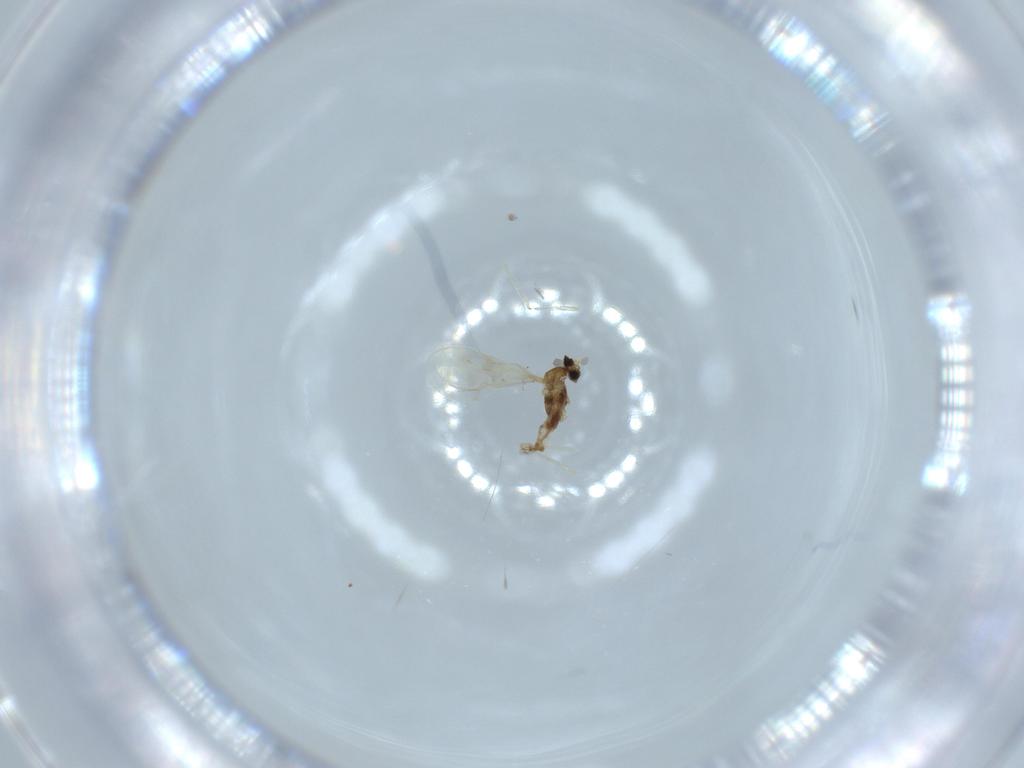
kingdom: Animalia
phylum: Arthropoda
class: Insecta
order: Diptera
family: Cecidomyiidae
